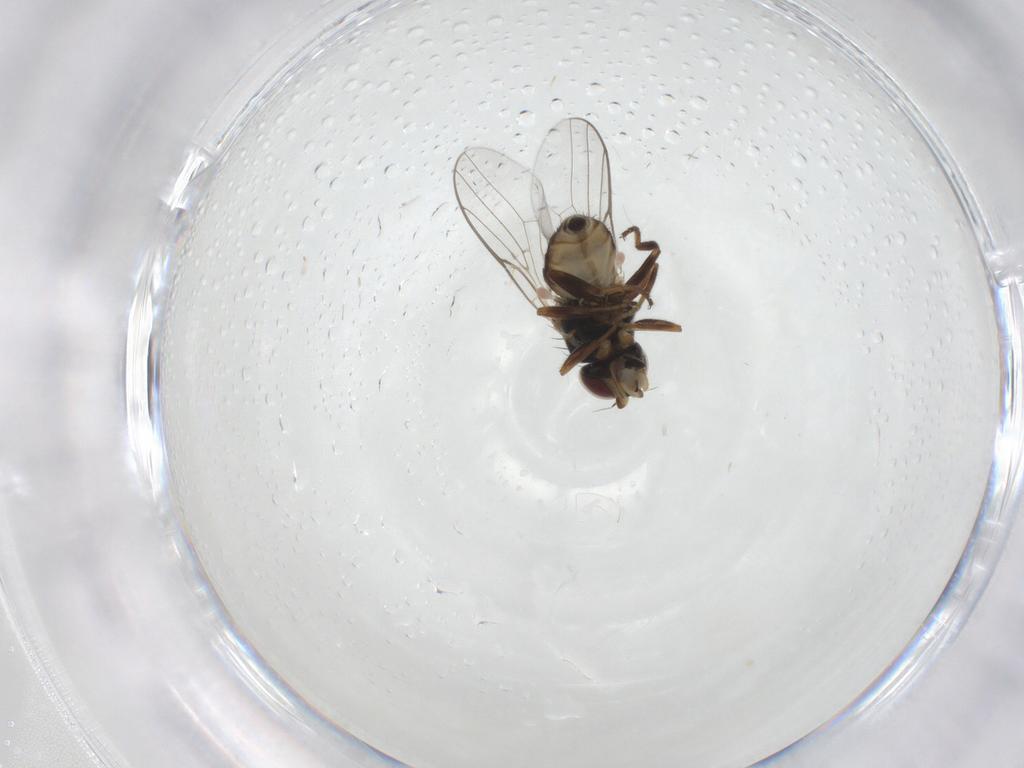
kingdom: Animalia
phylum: Arthropoda
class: Insecta
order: Diptera
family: Chloropidae
